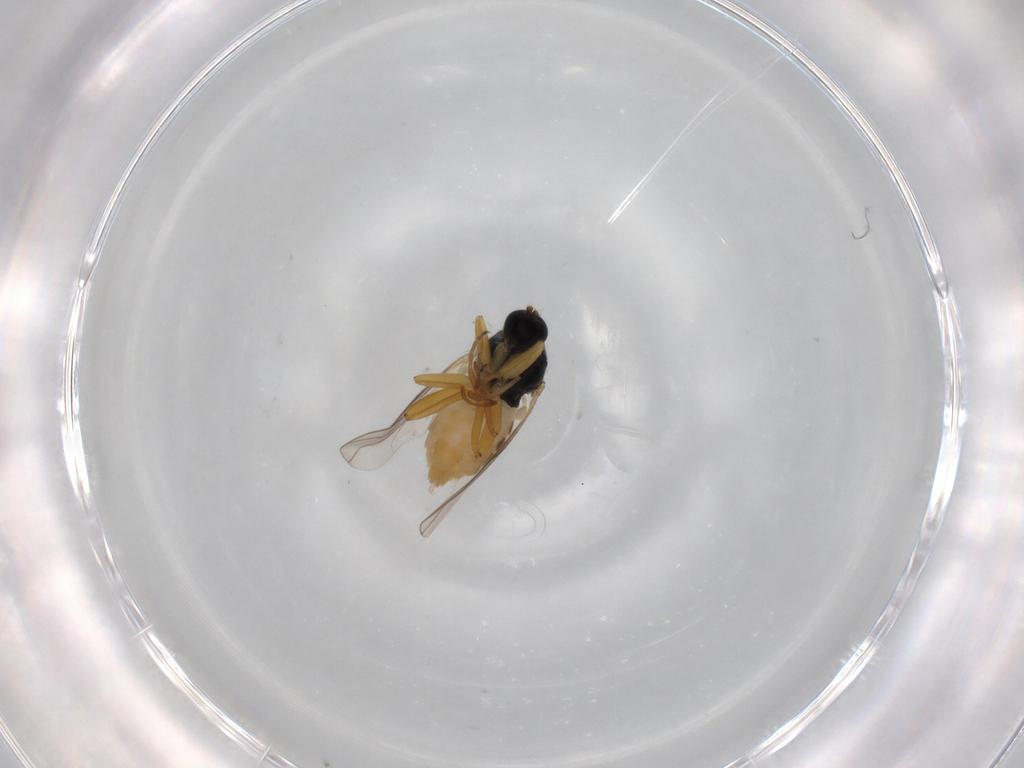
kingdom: Animalia
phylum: Arthropoda
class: Insecta
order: Diptera
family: Hybotidae
